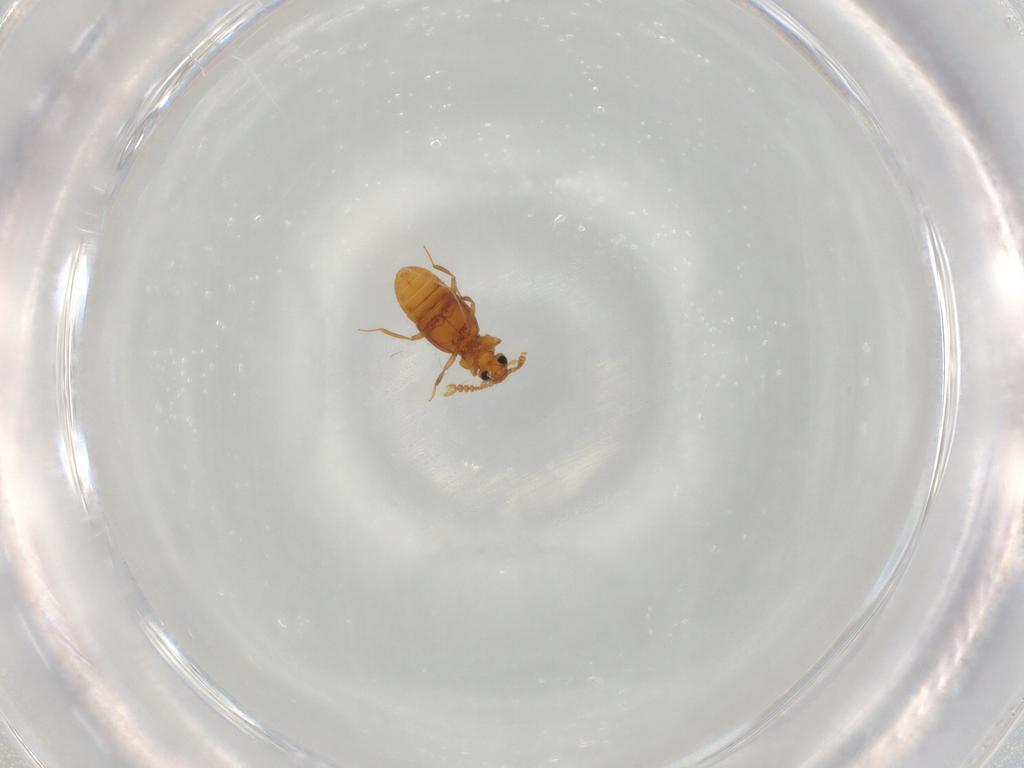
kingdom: Animalia
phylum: Arthropoda
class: Insecta
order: Coleoptera
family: Staphylinidae
